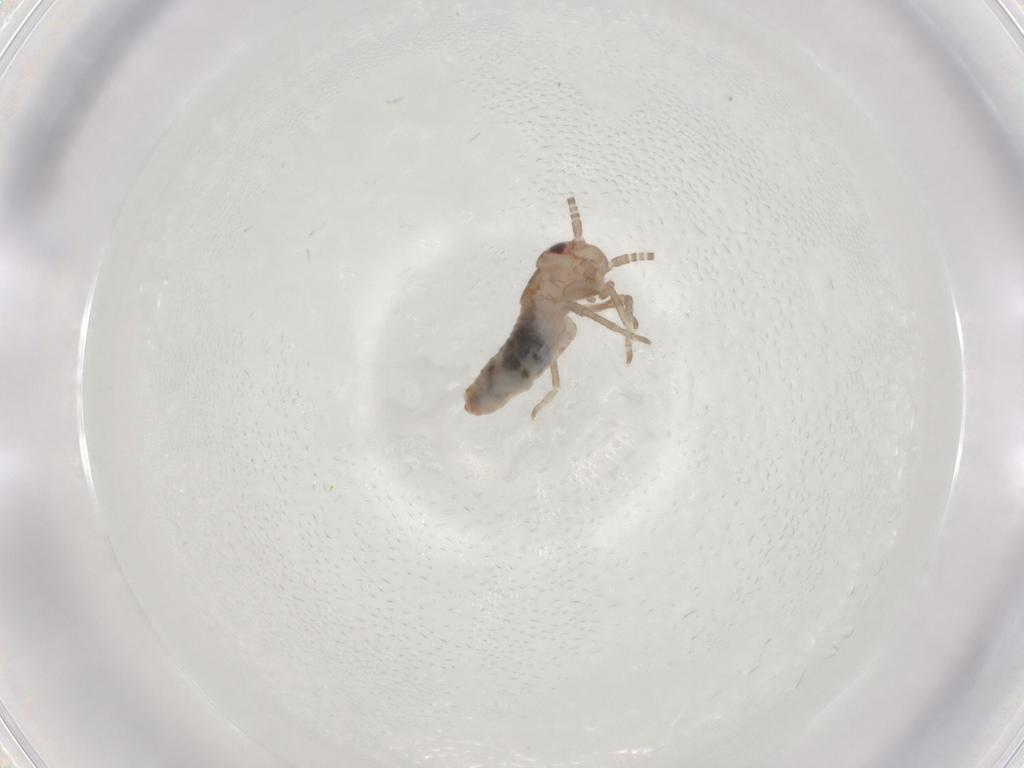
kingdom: Animalia
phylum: Arthropoda
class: Insecta
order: Orthoptera
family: Gryllidae
